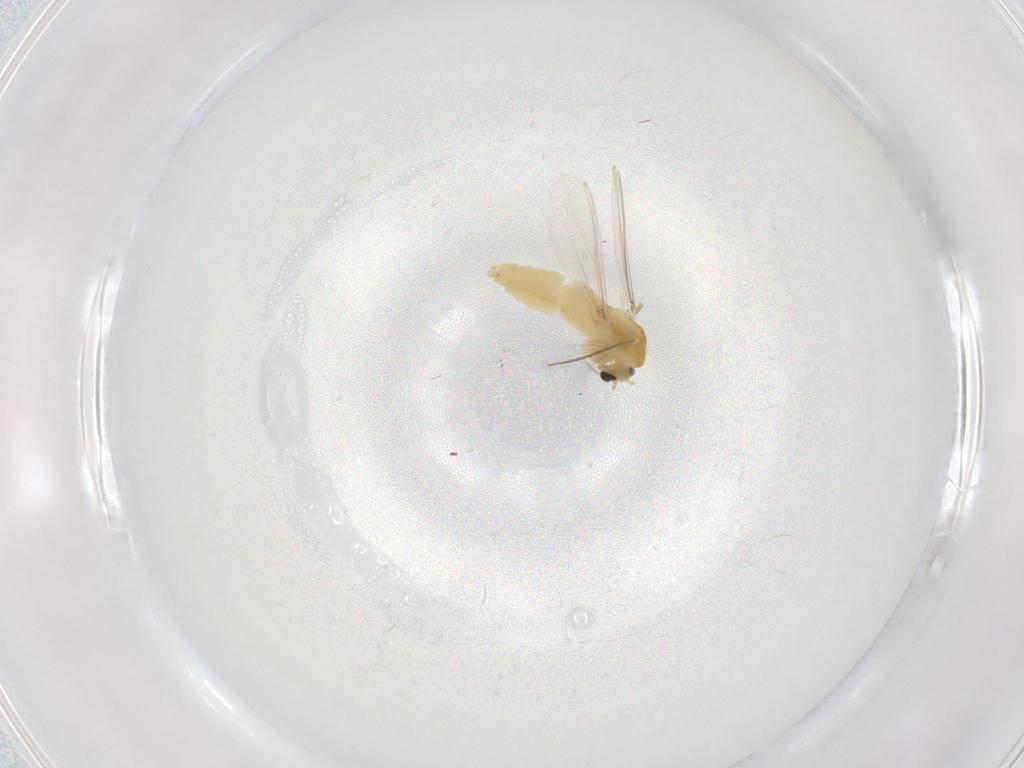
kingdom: Animalia
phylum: Arthropoda
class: Insecta
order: Diptera
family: Chironomidae
